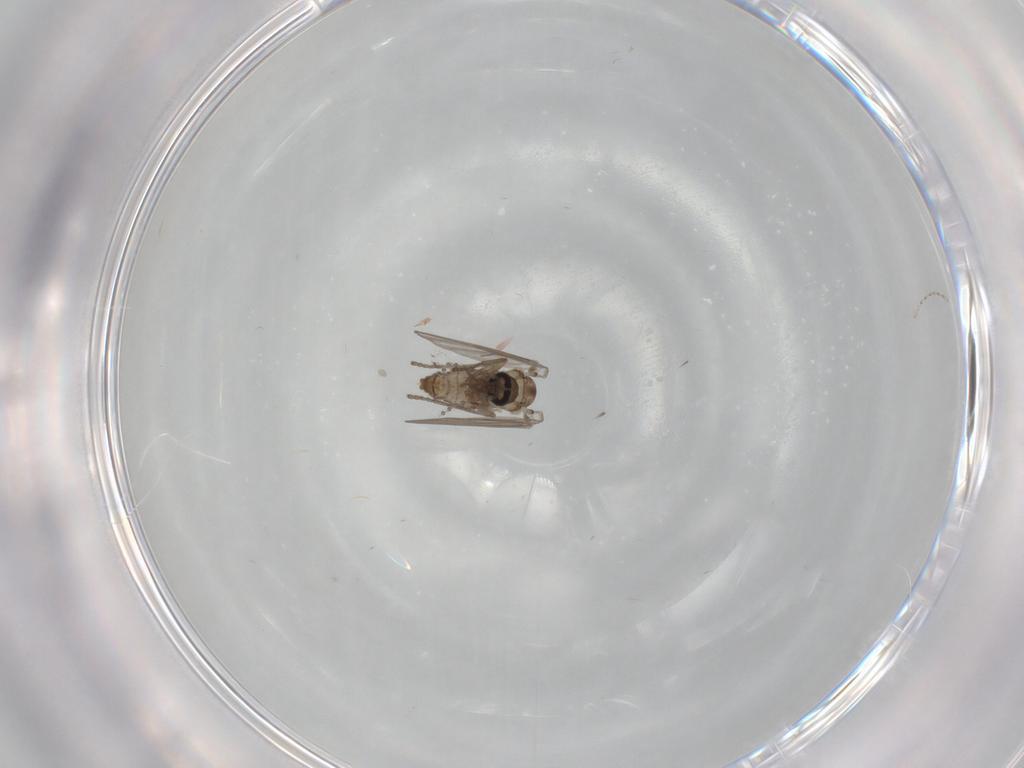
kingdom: Animalia
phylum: Arthropoda
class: Insecta
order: Diptera
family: Psychodidae
